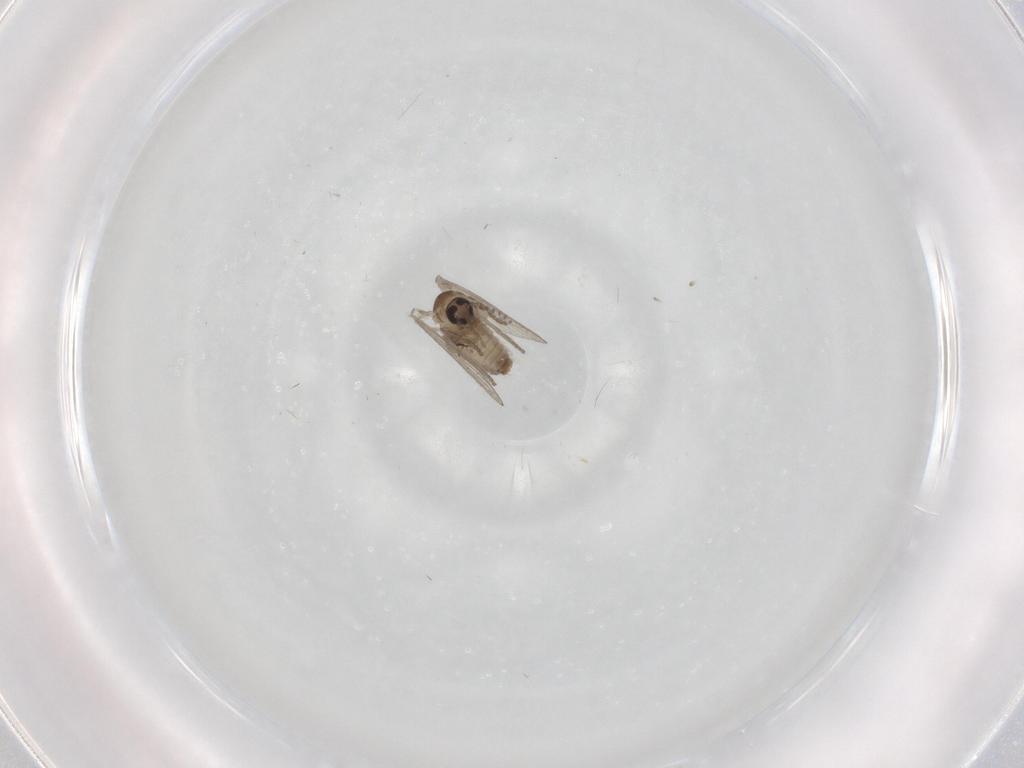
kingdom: Animalia
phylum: Arthropoda
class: Insecta
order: Diptera
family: Psychodidae
